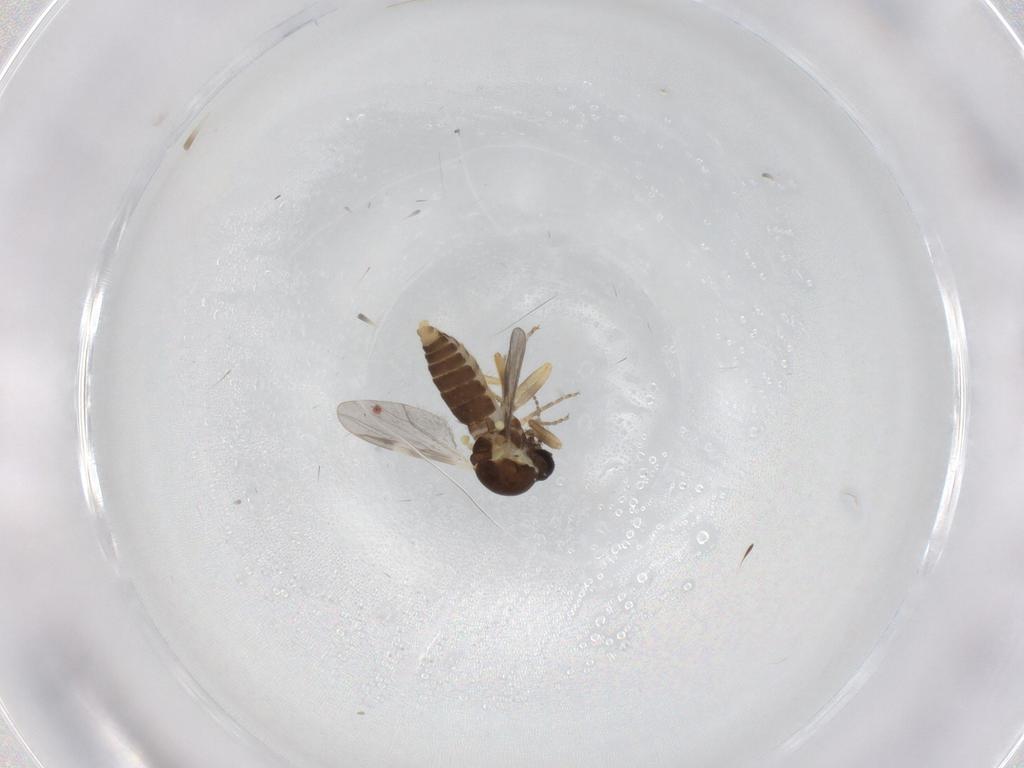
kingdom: Animalia
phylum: Arthropoda
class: Insecta
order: Diptera
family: Ceratopogonidae
